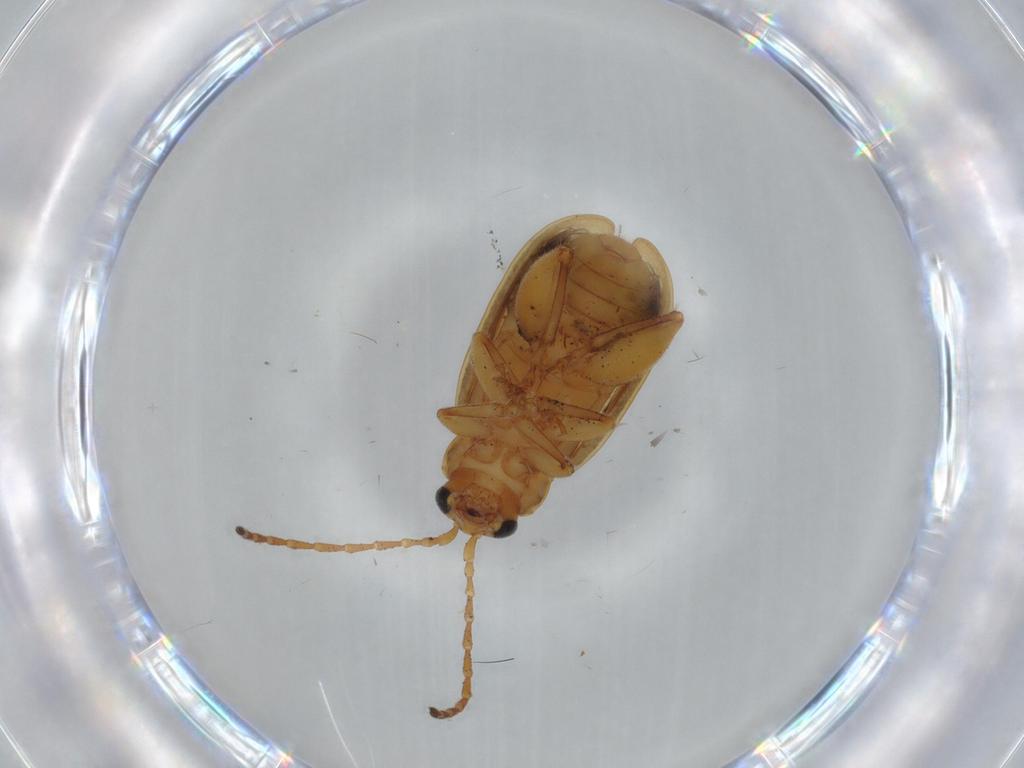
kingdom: Animalia
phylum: Arthropoda
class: Insecta
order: Coleoptera
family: Chrysomelidae
